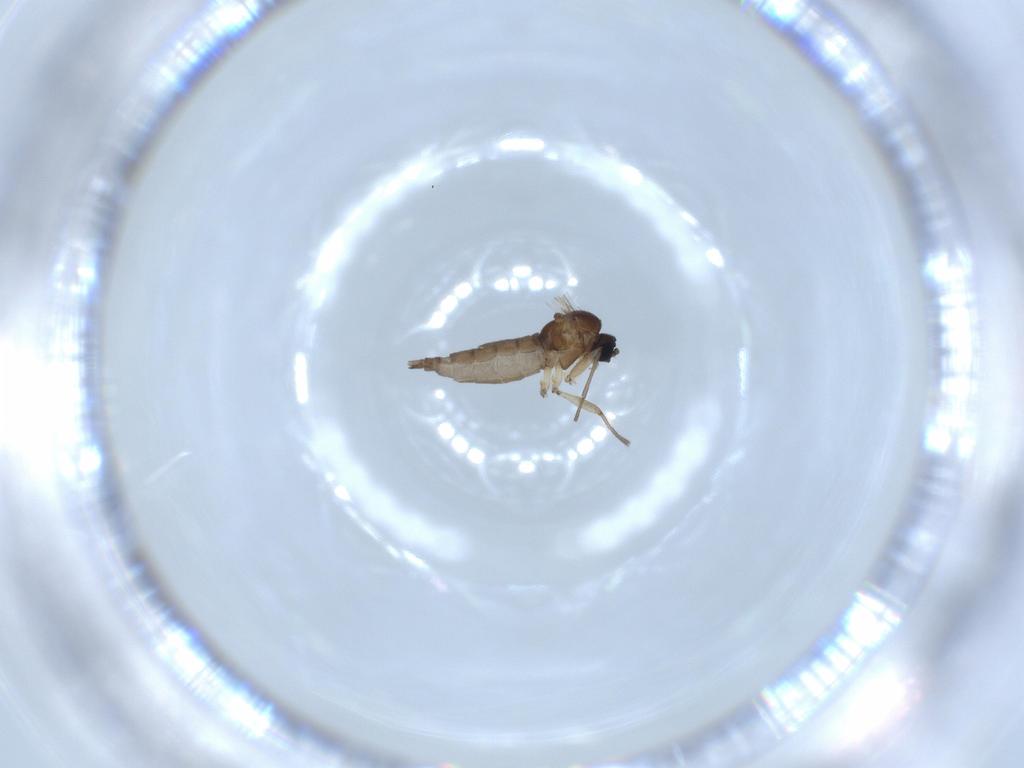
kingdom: Animalia
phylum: Arthropoda
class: Insecta
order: Diptera
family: Sciaridae
